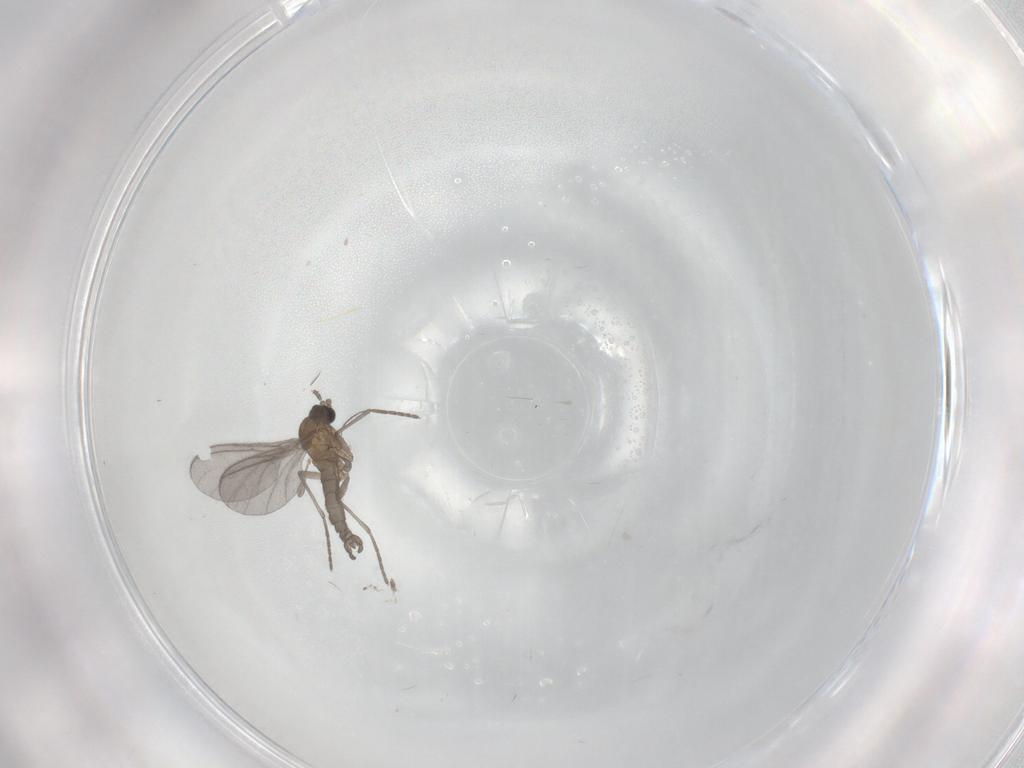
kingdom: Animalia
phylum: Arthropoda
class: Insecta
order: Diptera
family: Sciaridae
